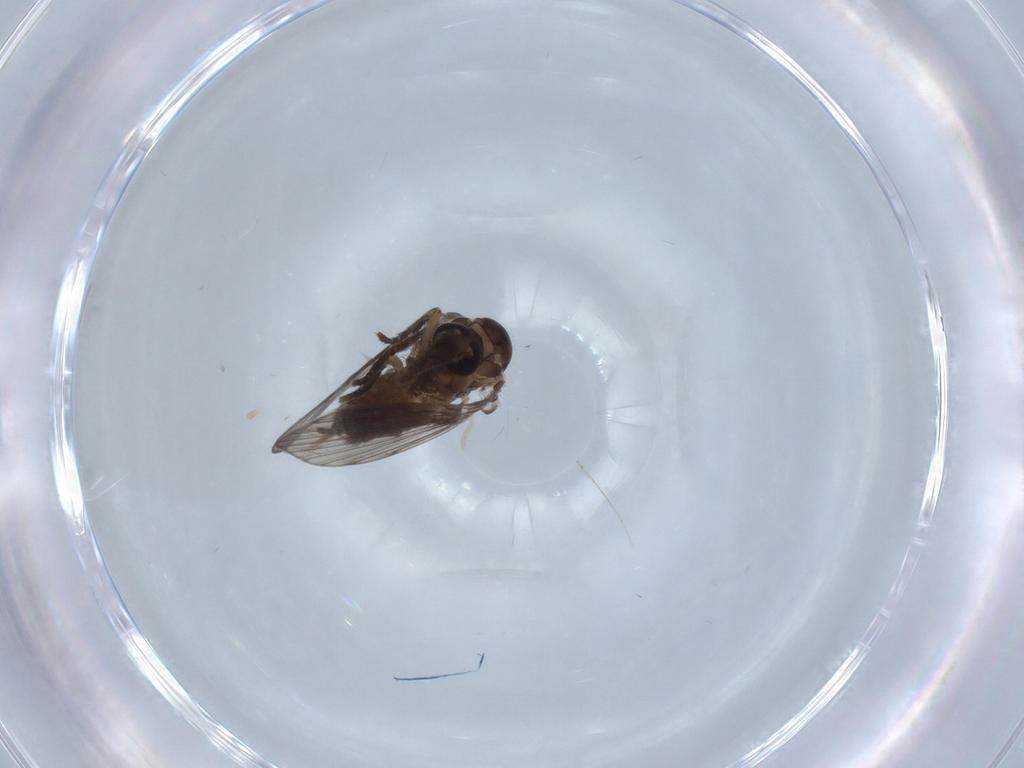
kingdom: Animalia
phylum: Arthropoda
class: Insecta
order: Diptera
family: Psychodidae
